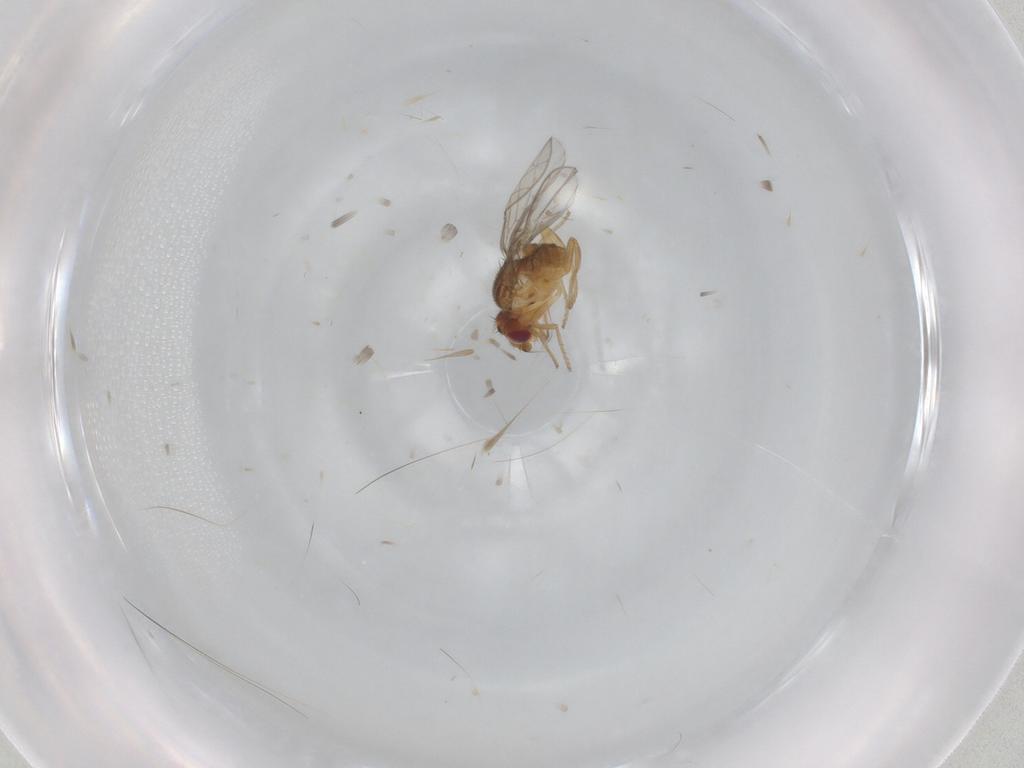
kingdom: Animalia
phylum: Arthropoda
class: Insecta
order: Diptera
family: Chloropidae
